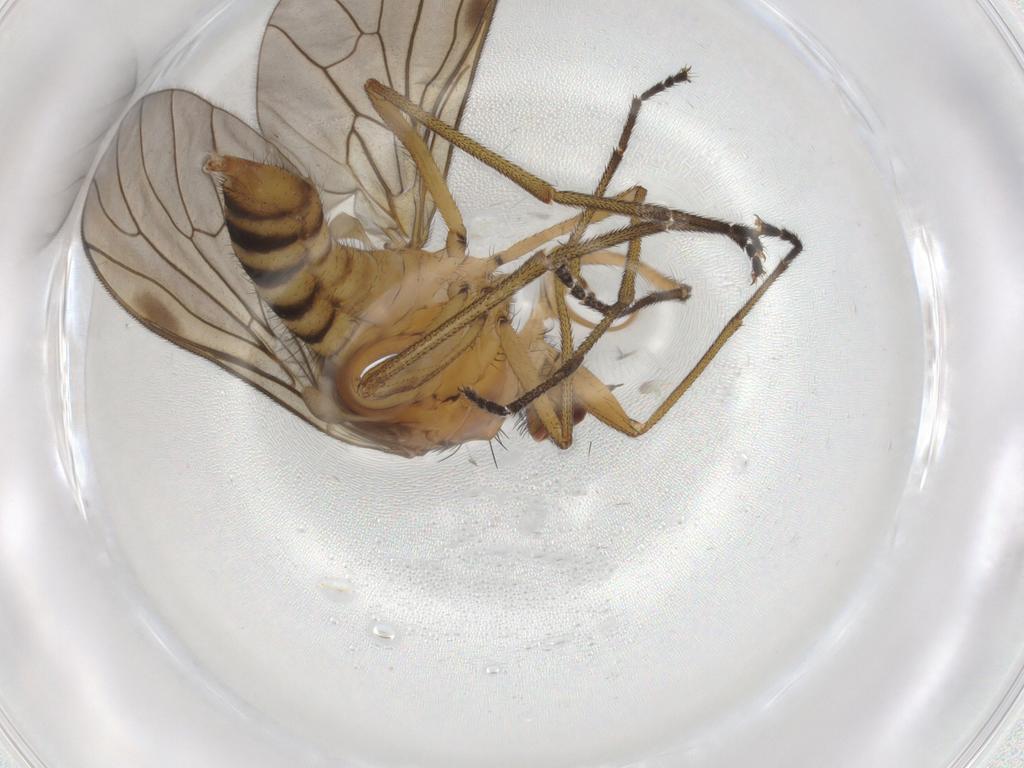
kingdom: Animalia
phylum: Arthropoda
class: Insecta
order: Diptera
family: Brachystomatidae
